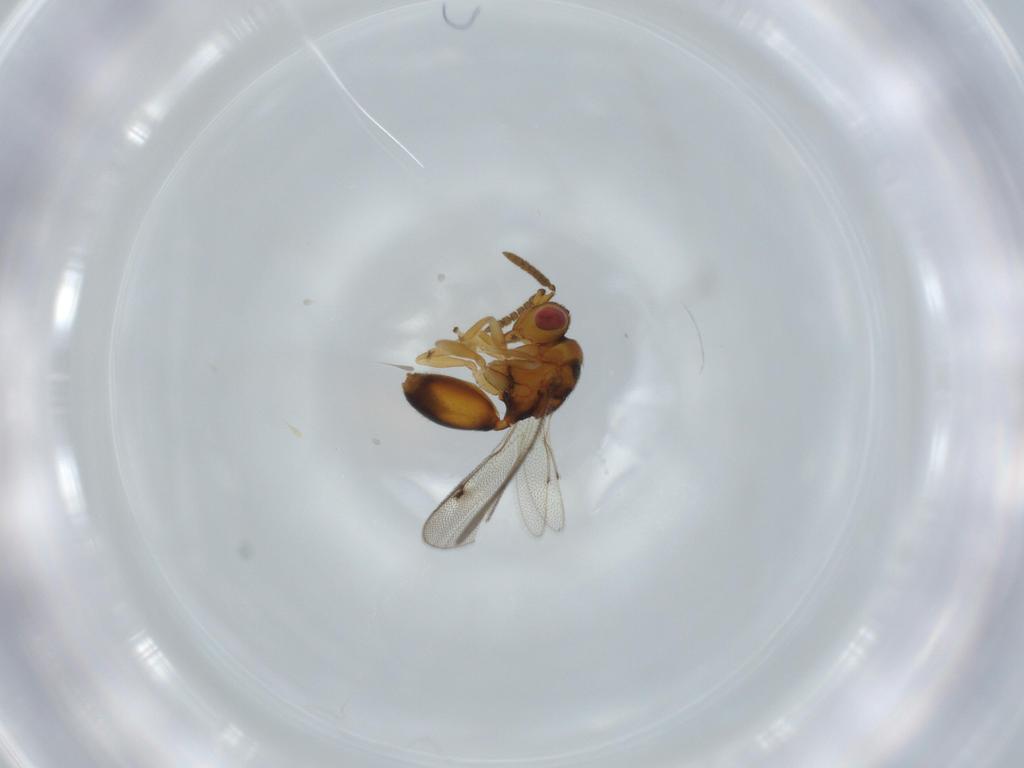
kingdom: Animalia
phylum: Arthropoda
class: Insecta
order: Hymenoptera
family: Eurytomidae
